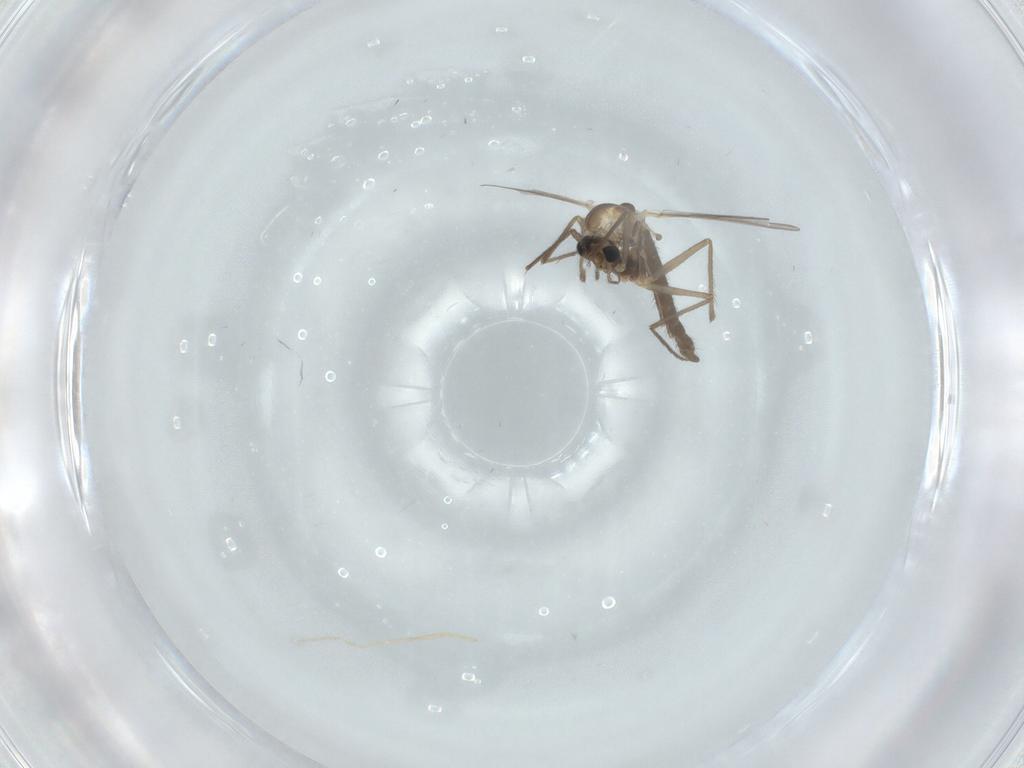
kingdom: Animalia
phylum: Arthropoda
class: Insecta
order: Diptera
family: Chironomidae
